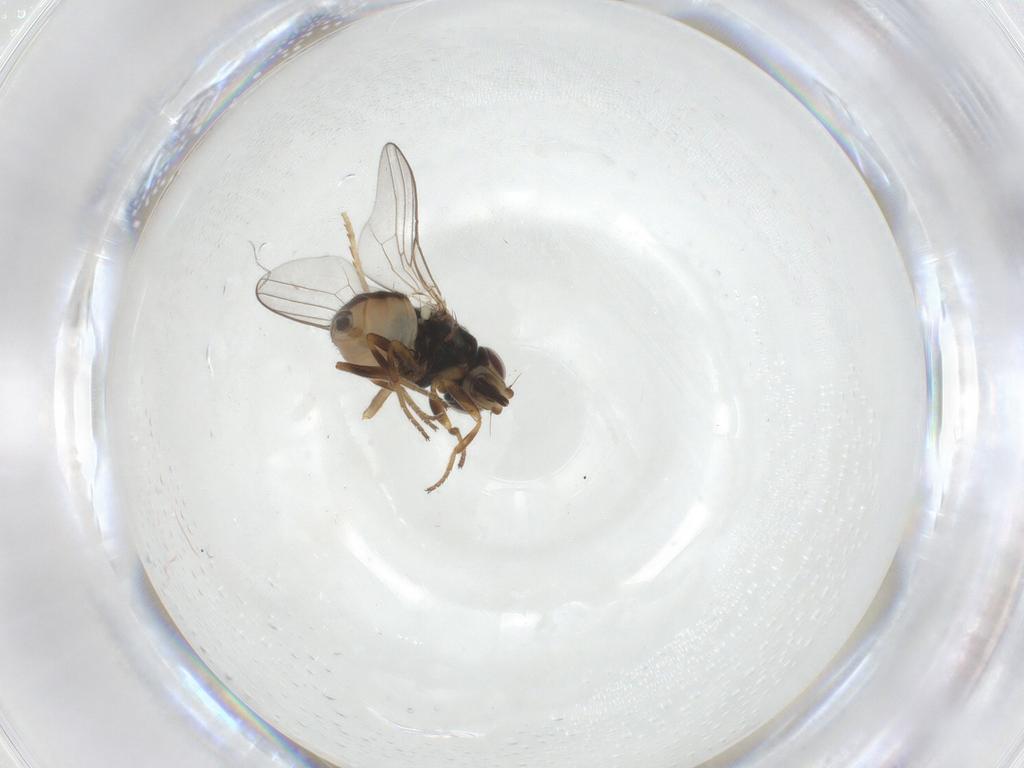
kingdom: Animalia
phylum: Arthropoda
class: Insecta
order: Diptera
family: Chloropidae
